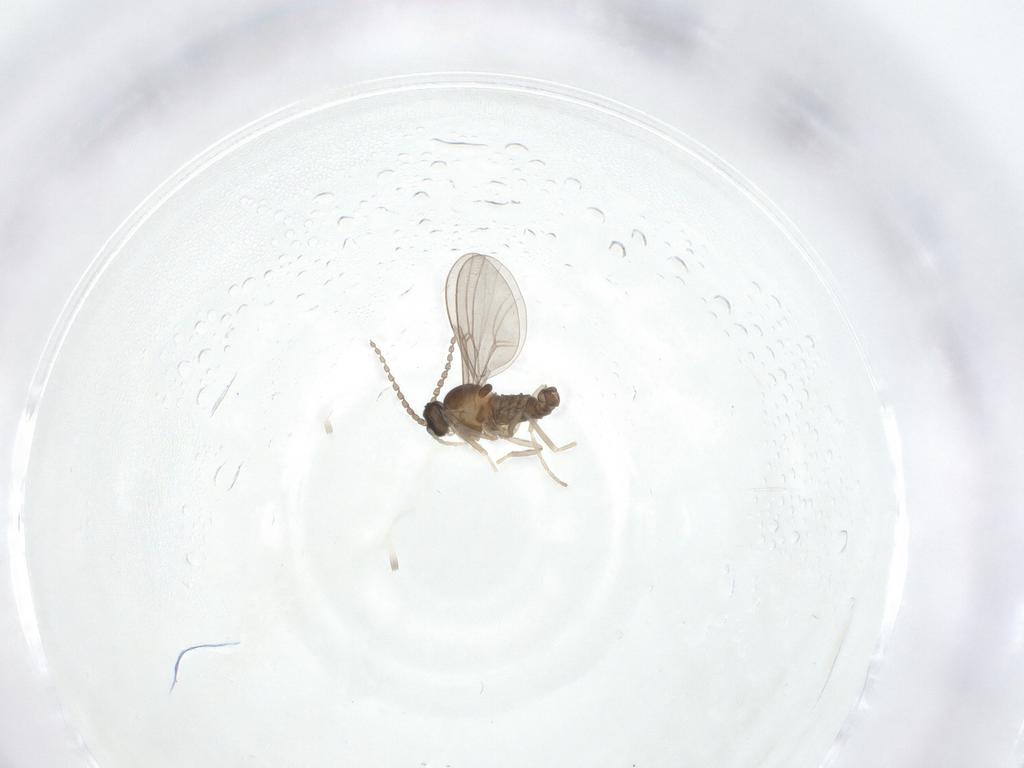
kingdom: Animalia
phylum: Arthropoda
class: Insecta
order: Diptera
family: Cecidomyiidae
